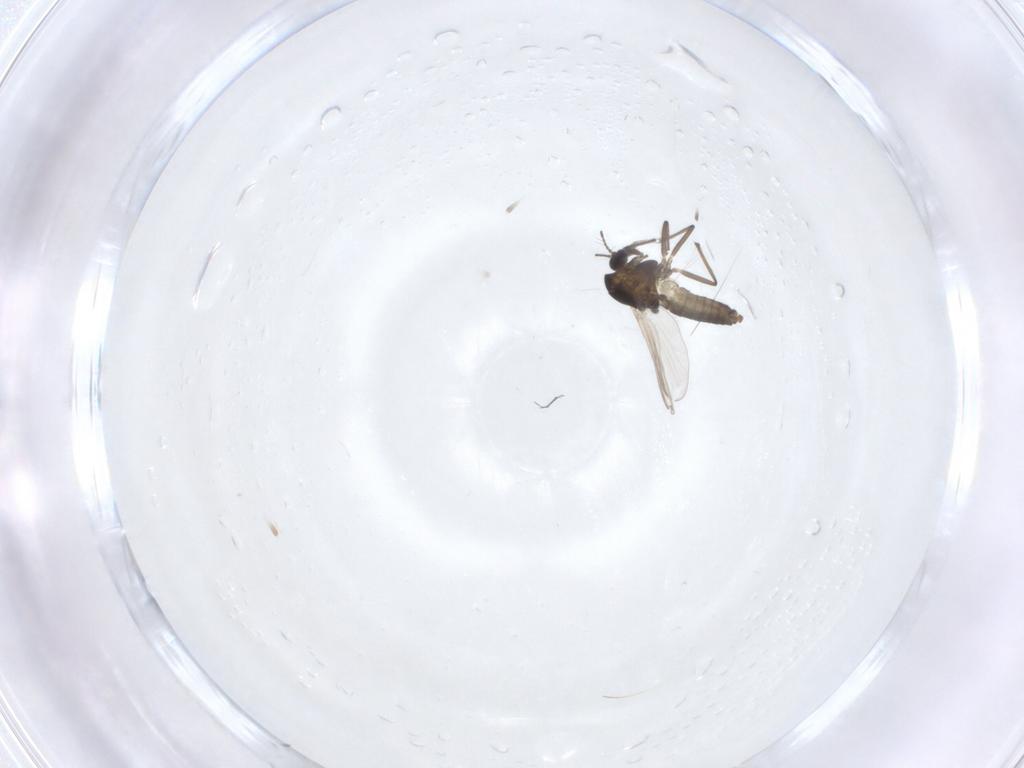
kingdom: Animalia
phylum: Arthropoda
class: Insecta
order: Diptera
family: Chironomidae
